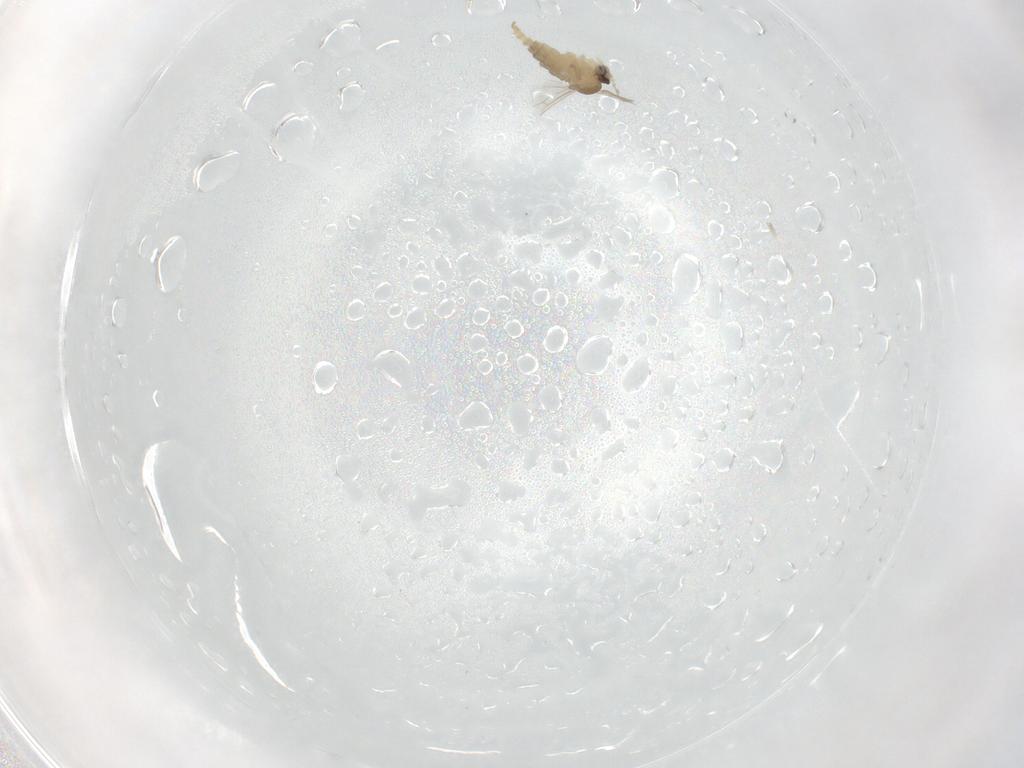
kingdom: Animalia
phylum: Arthropoda
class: Insecta
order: Diptera
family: Cecidomyiidae
